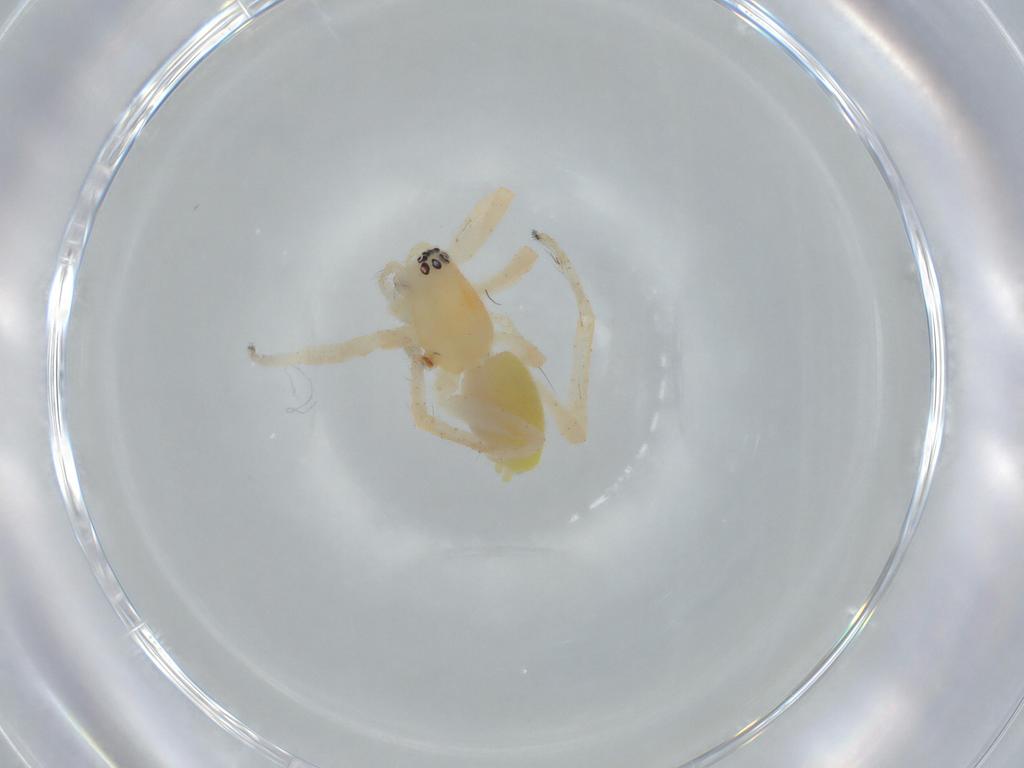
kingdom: Animalia
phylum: Arthropoda
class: Arachnida
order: Araneae
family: Anyphaenidae
